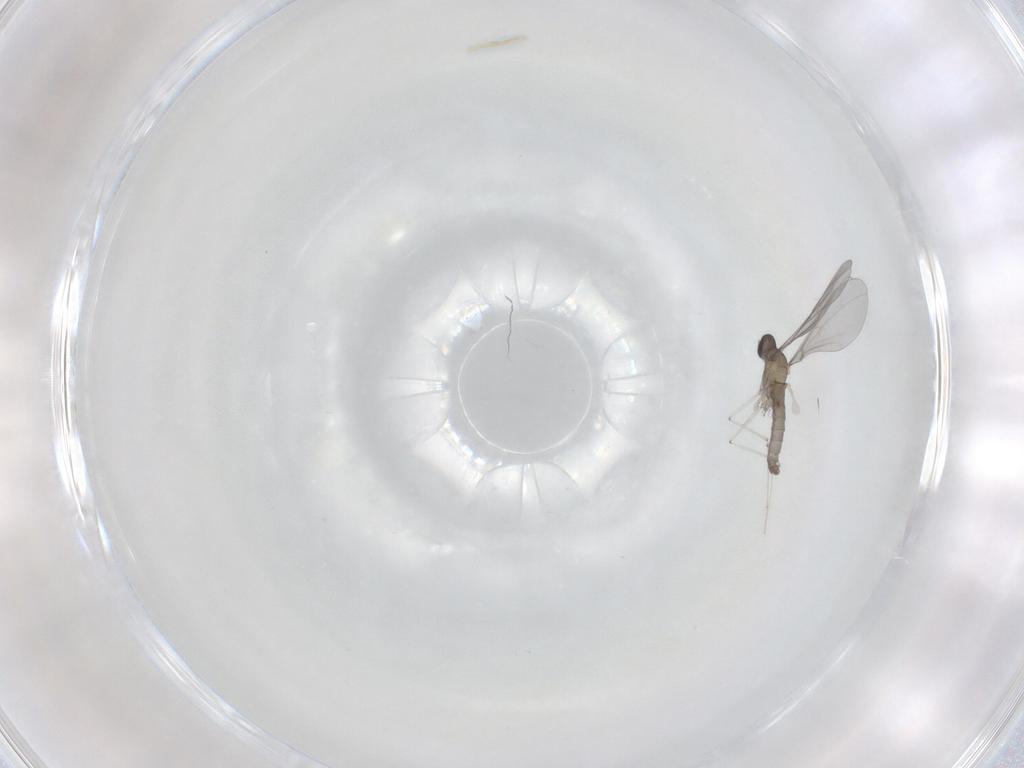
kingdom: Animalia
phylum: Arthropoda
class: Insecta
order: Diptera
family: Cecidomyiidae
